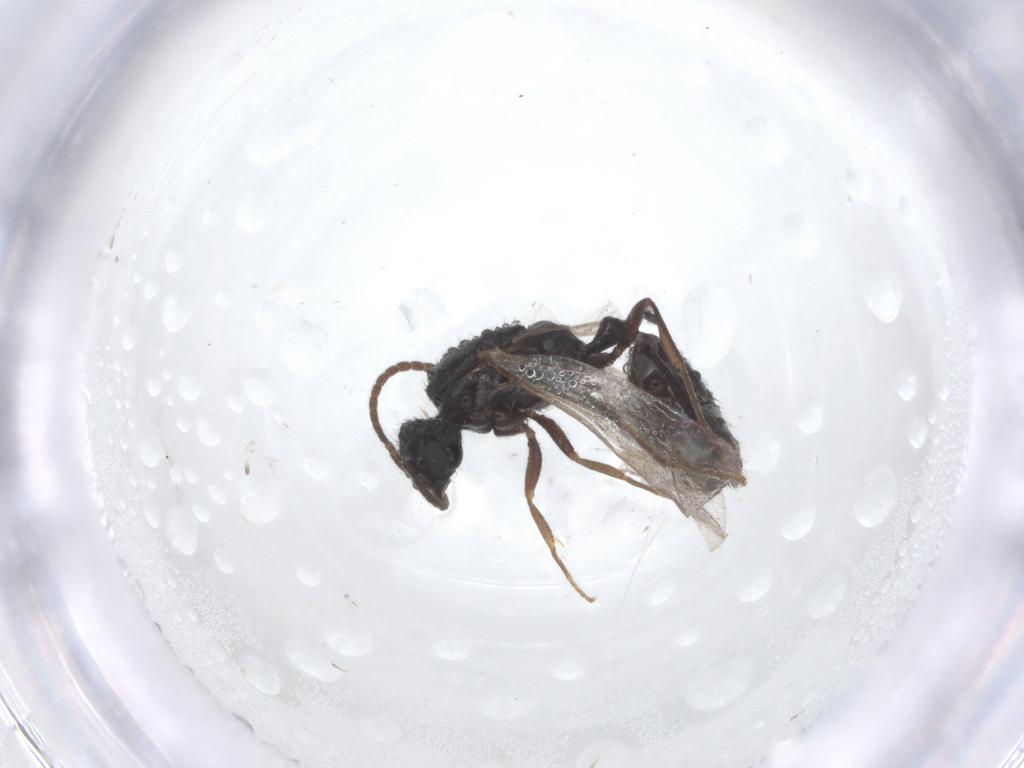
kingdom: Animalia
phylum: Arthropoda
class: Insecta
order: Hymenoptera
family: Formicidae
